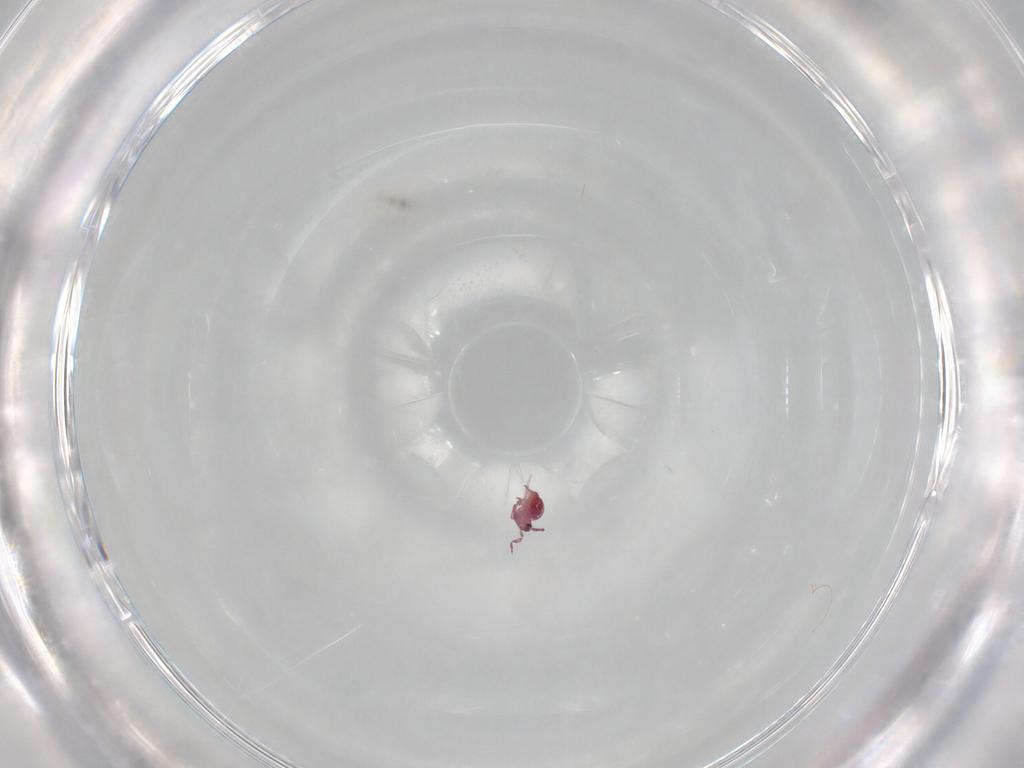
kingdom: Animalia
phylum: Arthropoda
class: Collembola
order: Symphypleona
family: Sminthurididae
